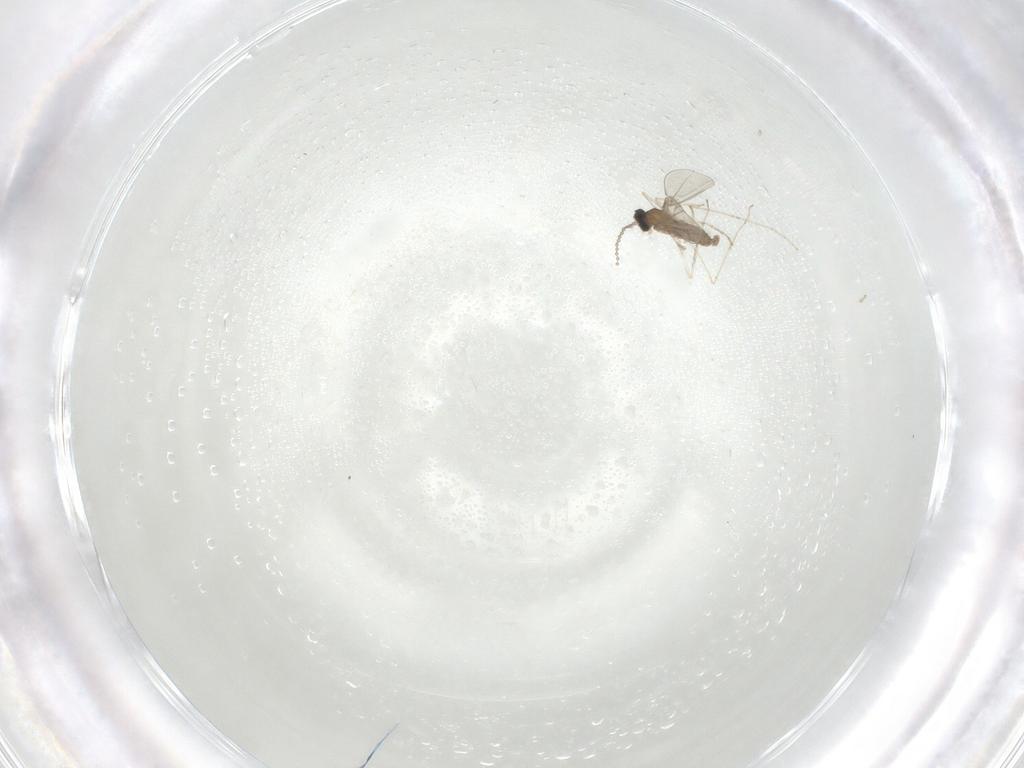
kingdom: Animalia
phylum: Arthropoda
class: Insecta
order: Diptera
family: Cecidomyiidae
